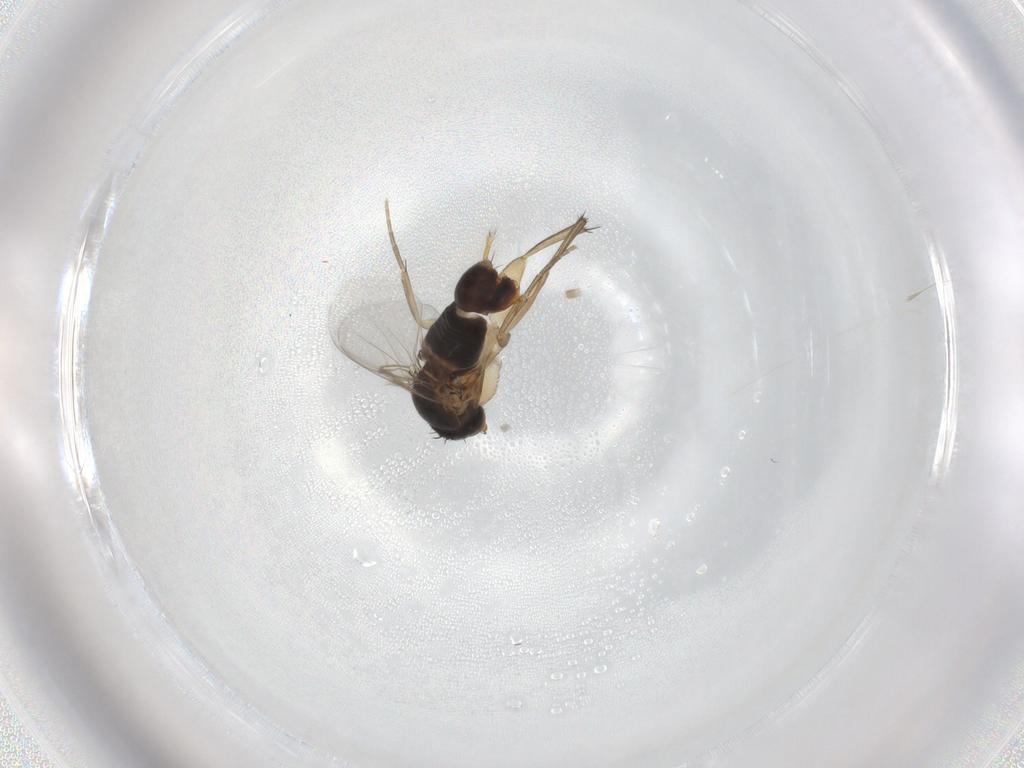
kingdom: Animalia
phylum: Arthropoda
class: Insecta
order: Diptera
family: Phoridae
